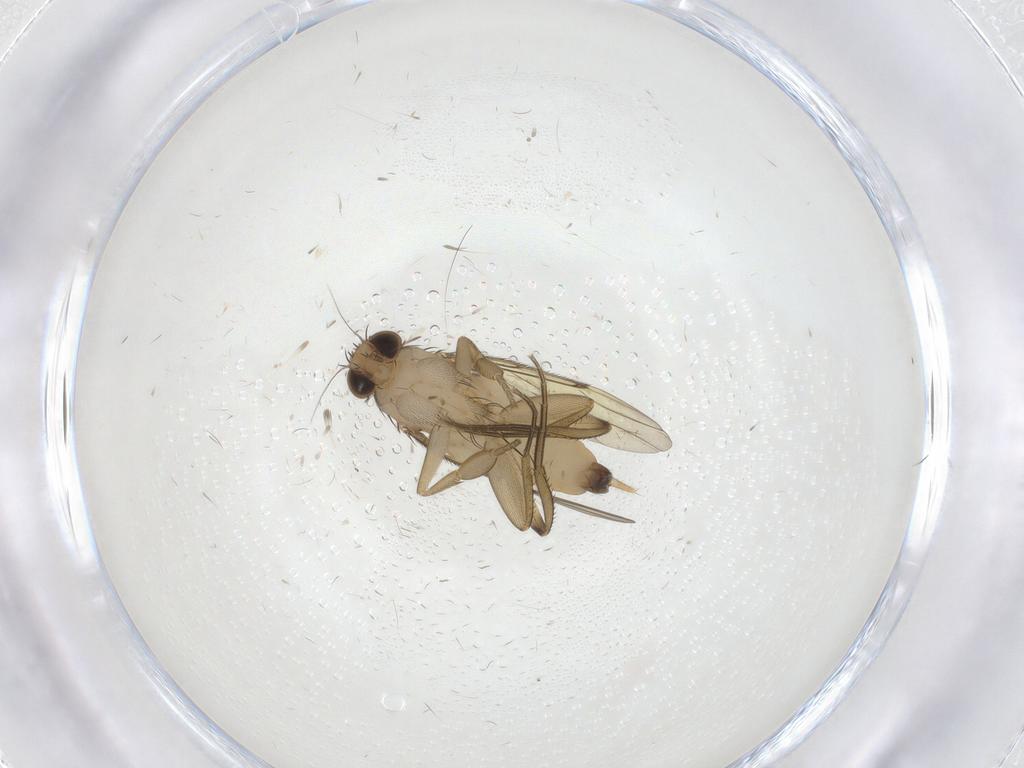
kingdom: Animalia
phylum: Arthropoda
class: Insecta
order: Diptera
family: Phoridae
